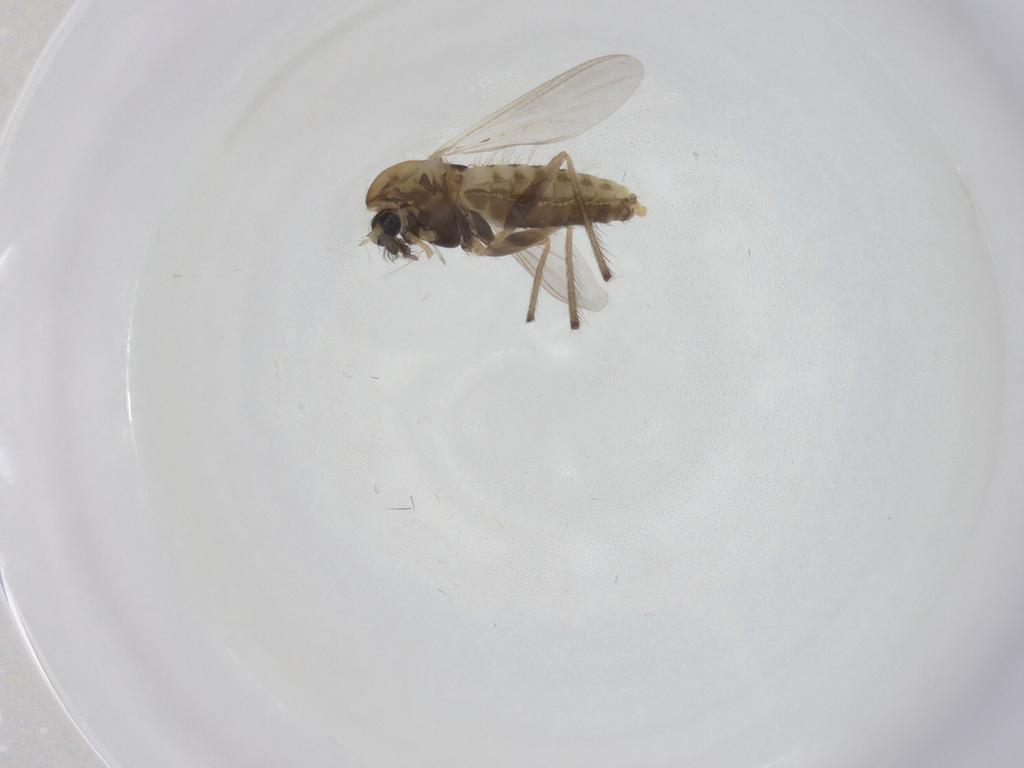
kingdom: Animalia
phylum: Arthropoda
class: Insecta
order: Diptera
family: Chironomidae
